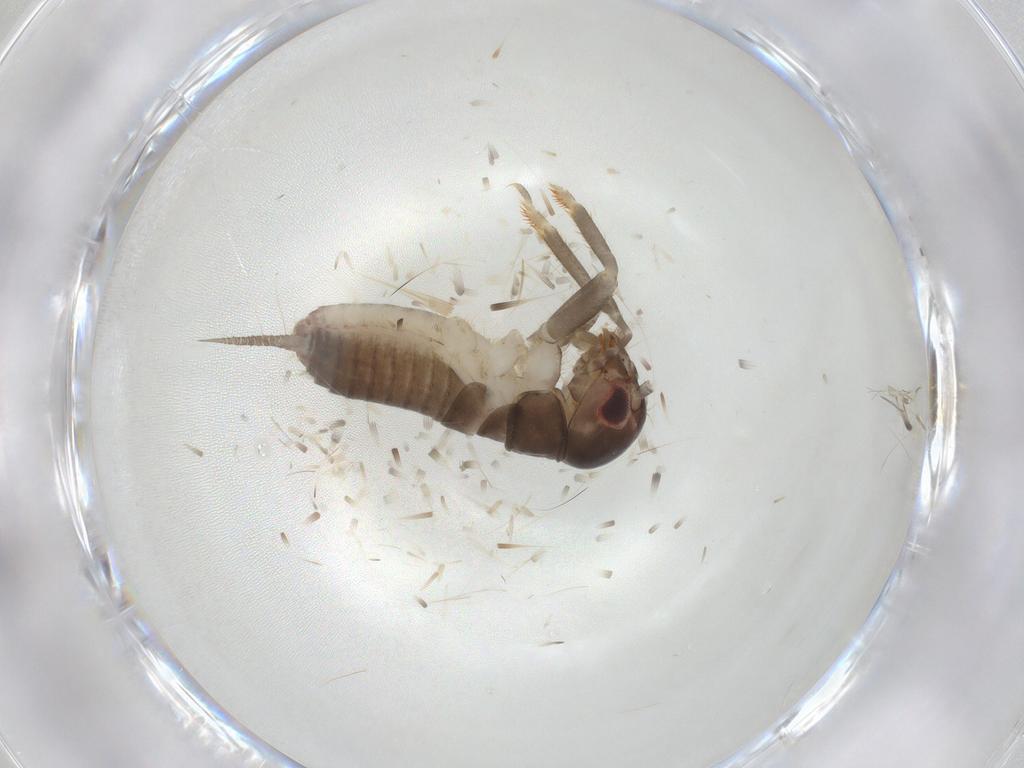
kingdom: Animalia
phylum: Arthropoda
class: Insecta
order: Orthoptera
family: Gryllidae
